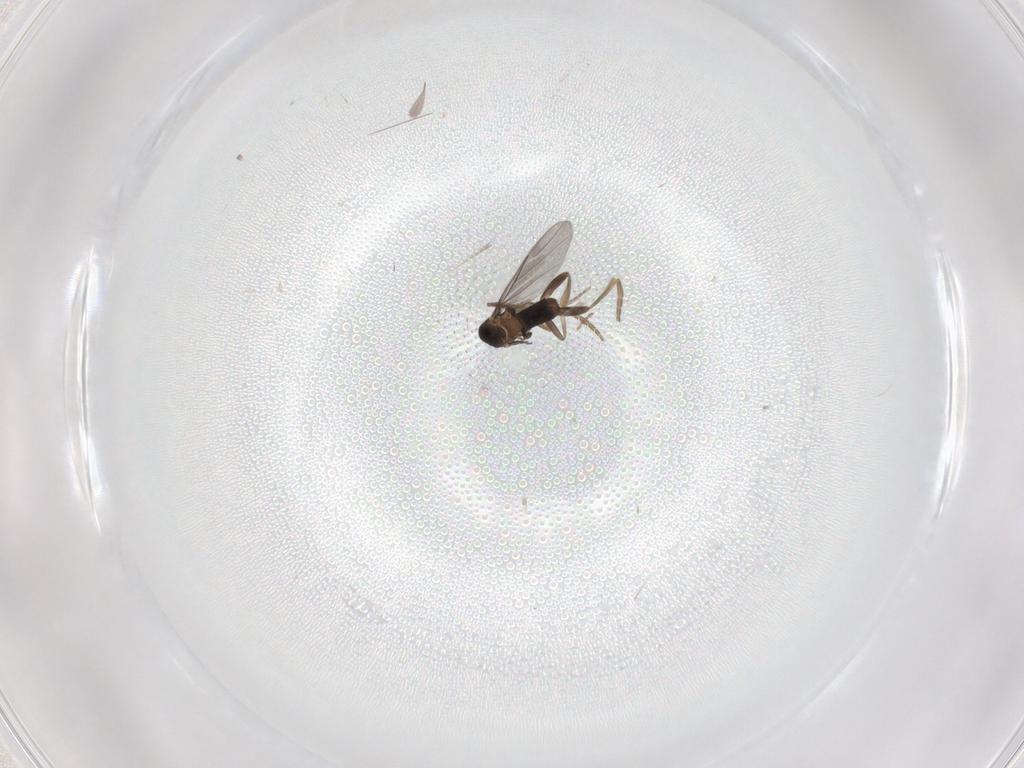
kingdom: Animalia
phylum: Arthropoda
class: Insecta
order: Diptera
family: Phoridae
